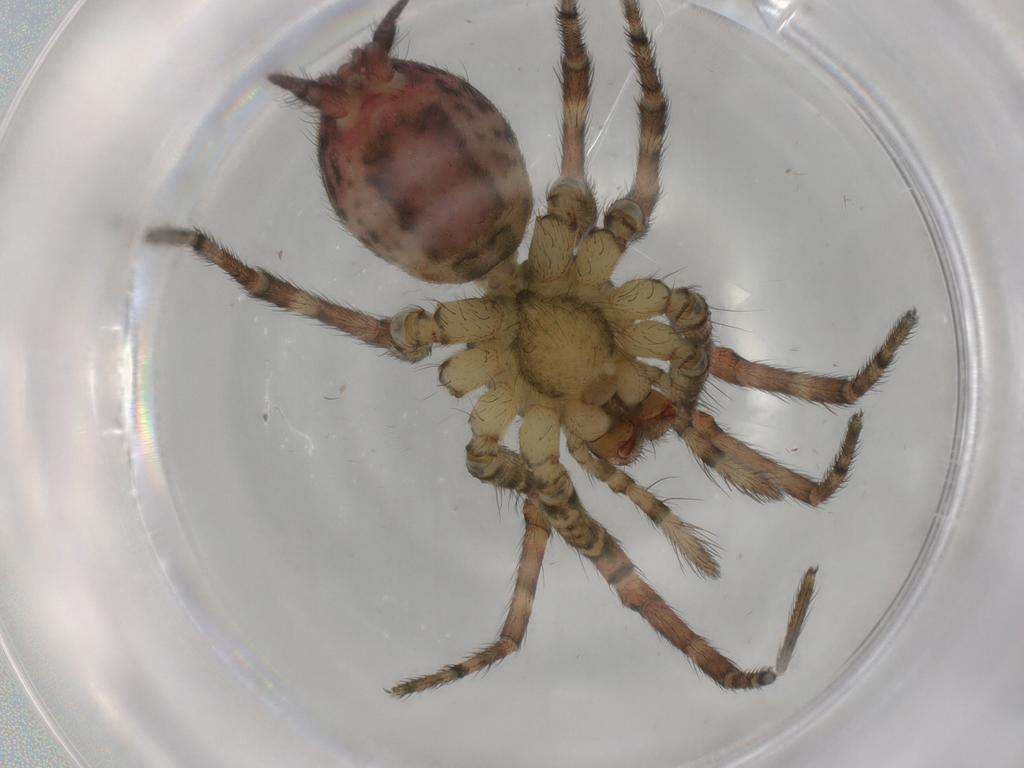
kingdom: Animalia
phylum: Arthropoda
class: Arachnida
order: Araneae
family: Agelenidae
